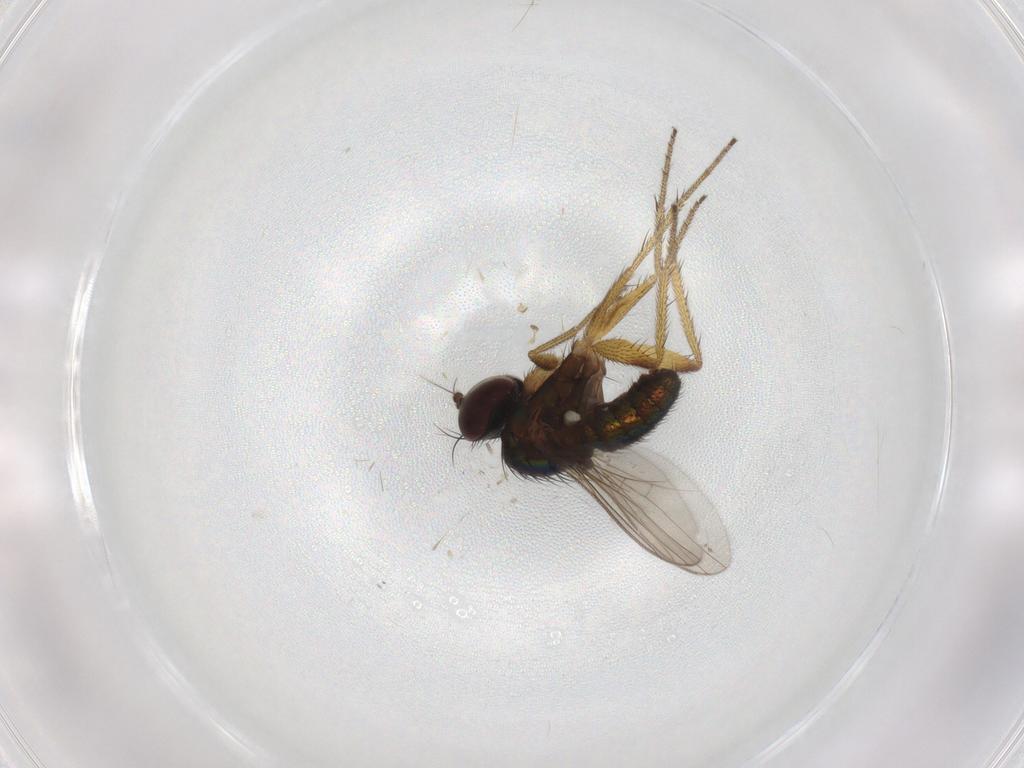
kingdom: Animalia
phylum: Arthropoda
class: Insecta
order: Diptera
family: Dolichopodidae
